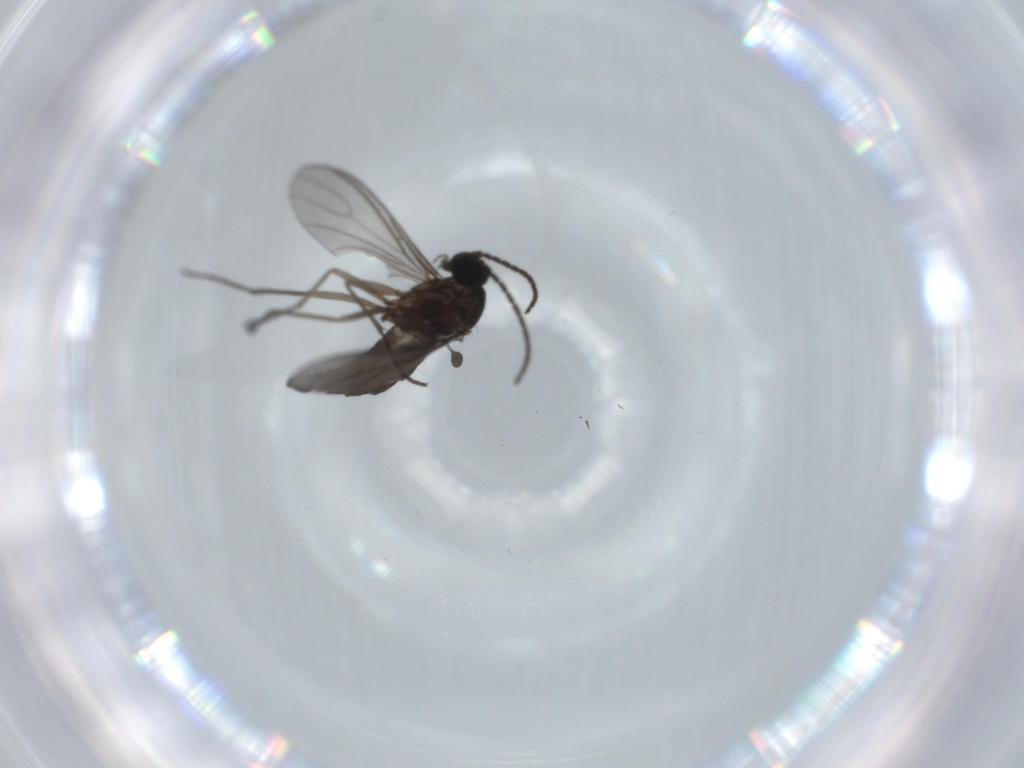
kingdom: Animalia
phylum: Arthropoda
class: Insecta
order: Diptera
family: Sciaridae
